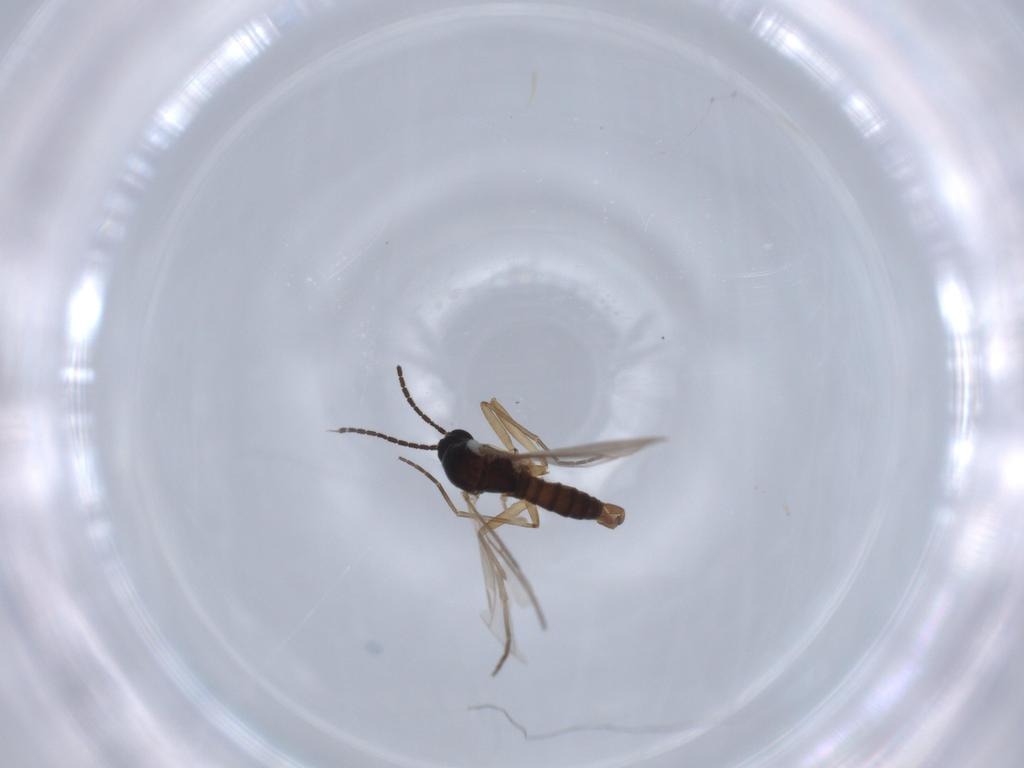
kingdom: Animalia
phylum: Arthropoda
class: Insecta
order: Diptera
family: Sciaridae
